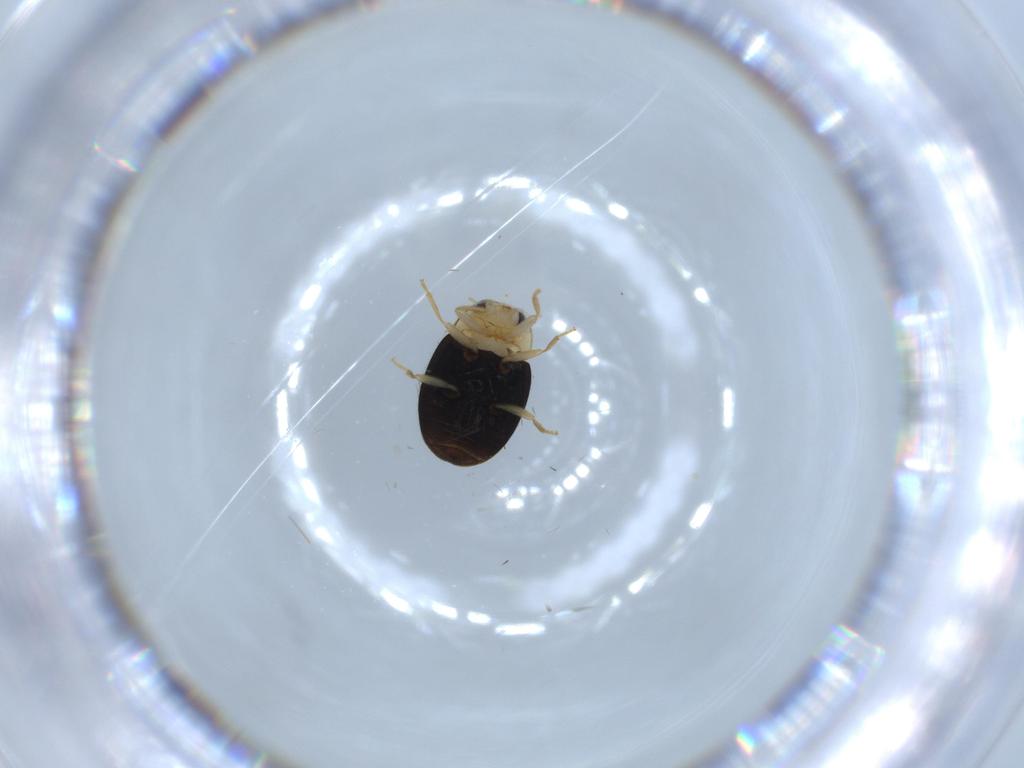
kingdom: Animalia
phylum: Arthropoda
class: Insecta
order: Coleoptera
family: Coccinellidae
